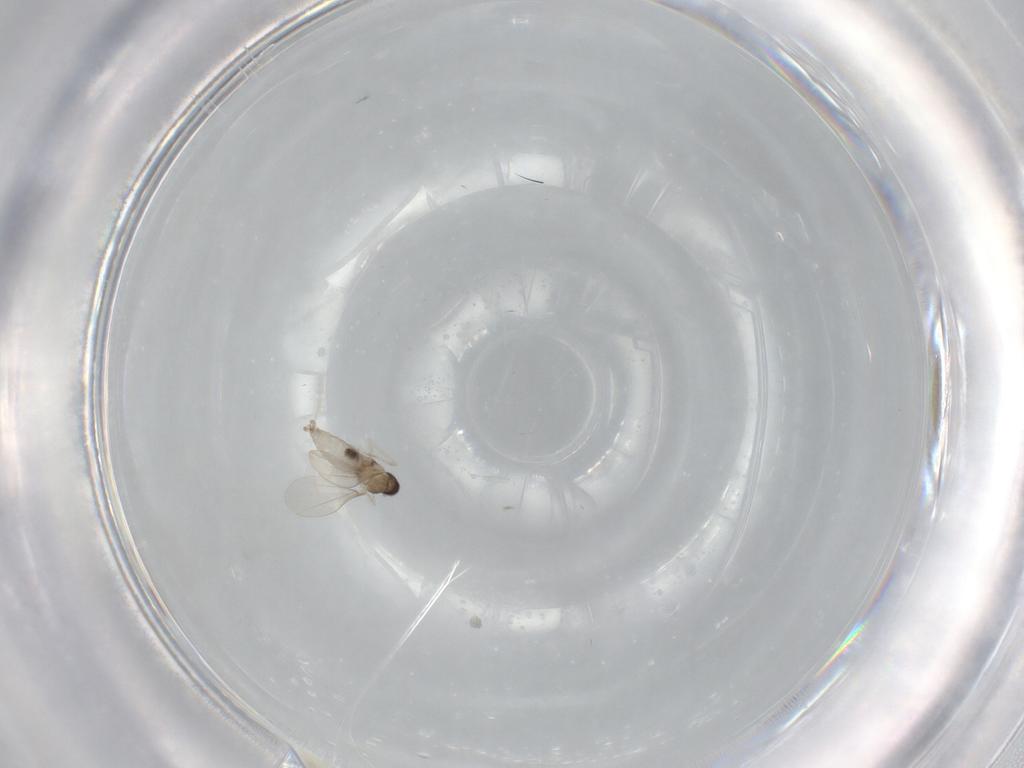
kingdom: Animalia
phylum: Arthropoda
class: Insecta
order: Diptera
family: Cecidomyiidae
